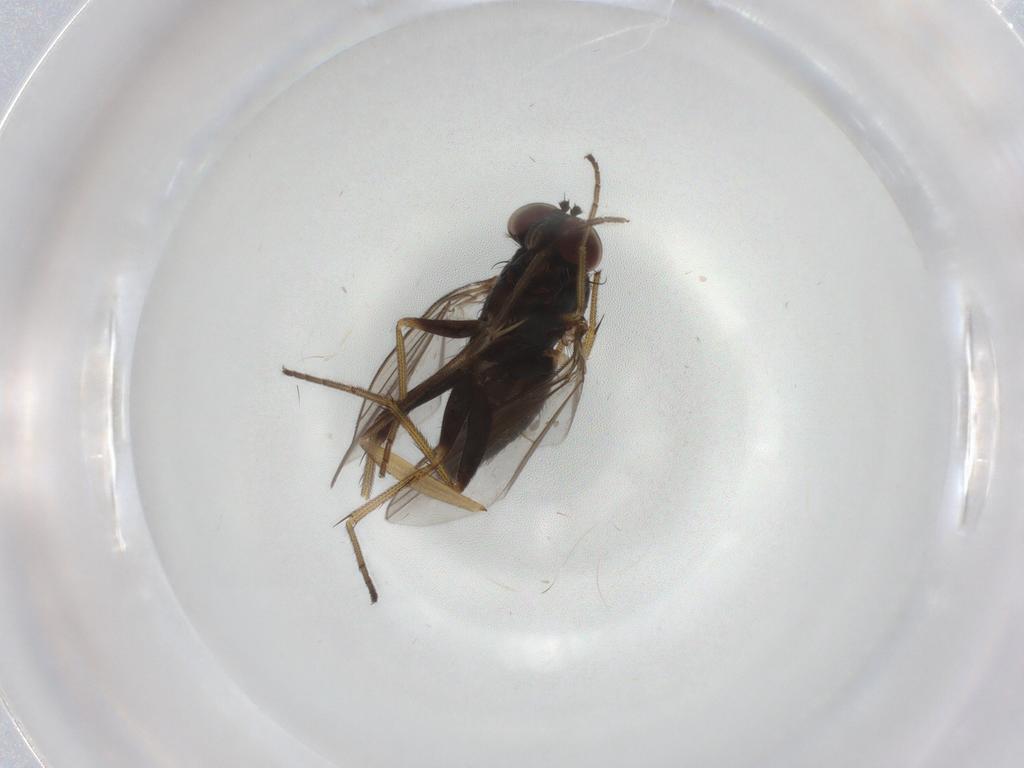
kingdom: Animalia
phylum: Arthropoda
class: Insecta
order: Diptera
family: Dolichopodidae
